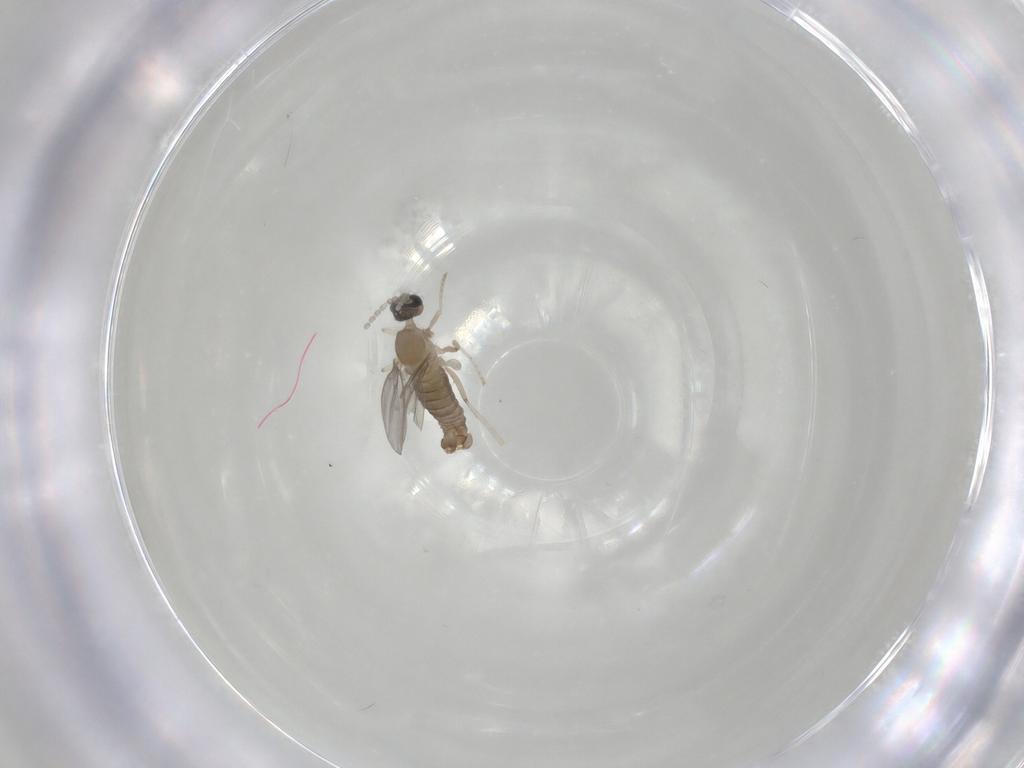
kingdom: Animalia
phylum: Arthropoda
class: Insecta
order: Diptera
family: Cecidomyiidae
